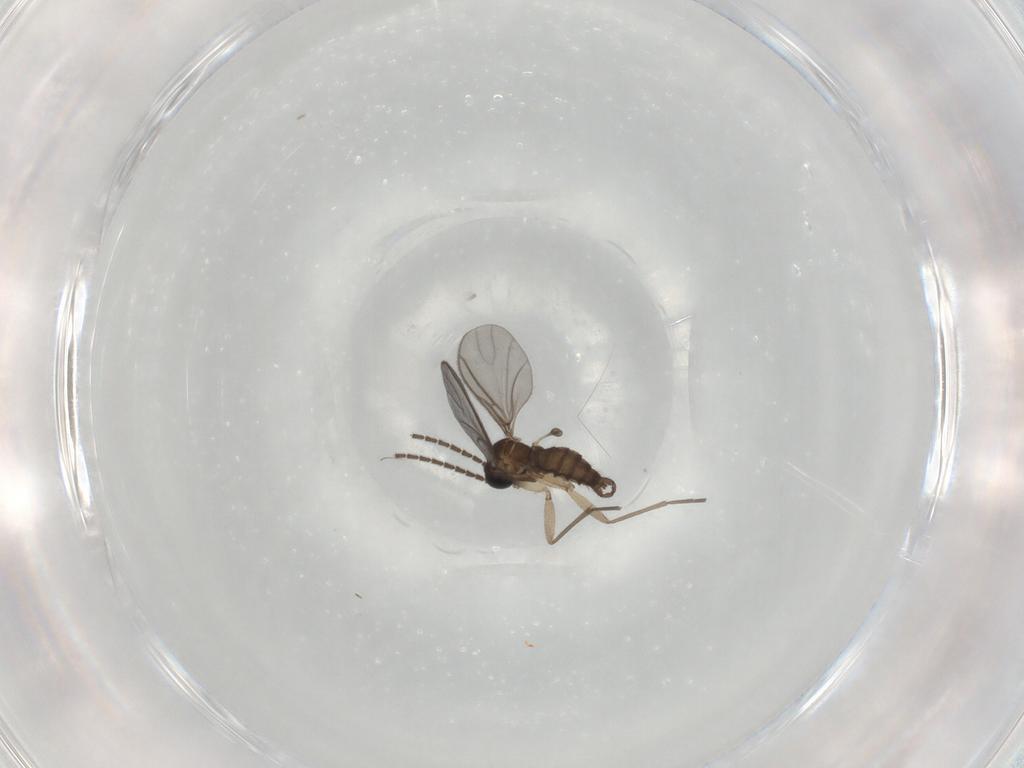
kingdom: Animalia
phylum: Arthropoda
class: Insecta
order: Diptera
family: Sciaridae
